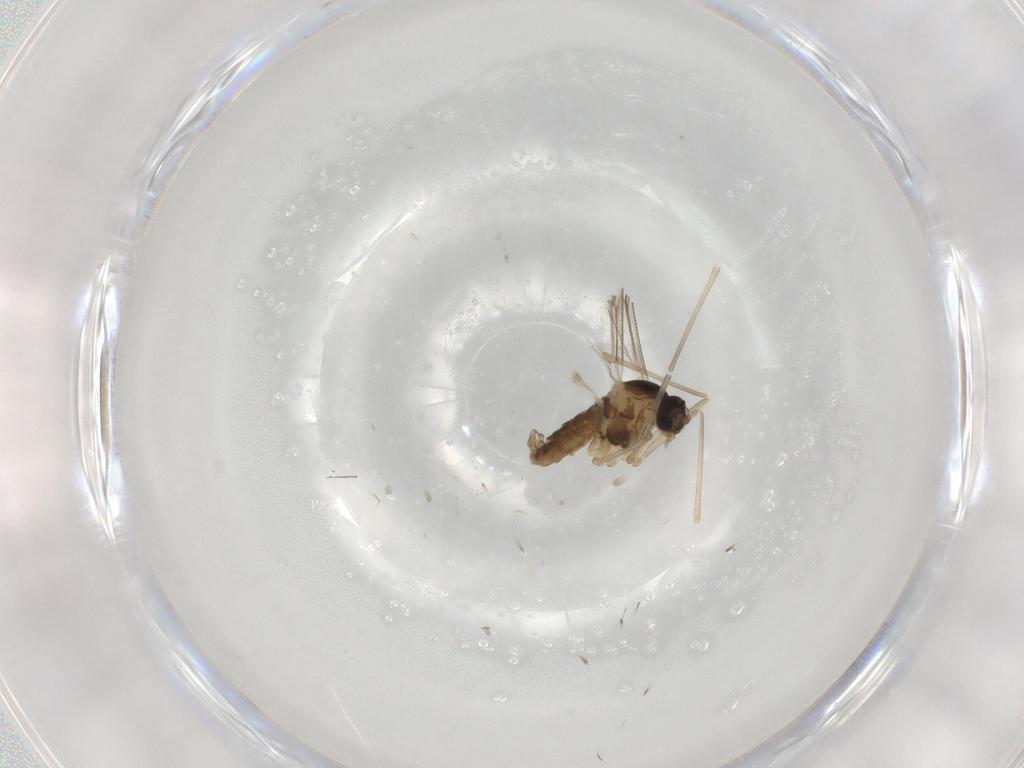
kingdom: Animalia
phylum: Arthropoda
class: Insecta
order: Diptera
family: Cecidomyiidae
